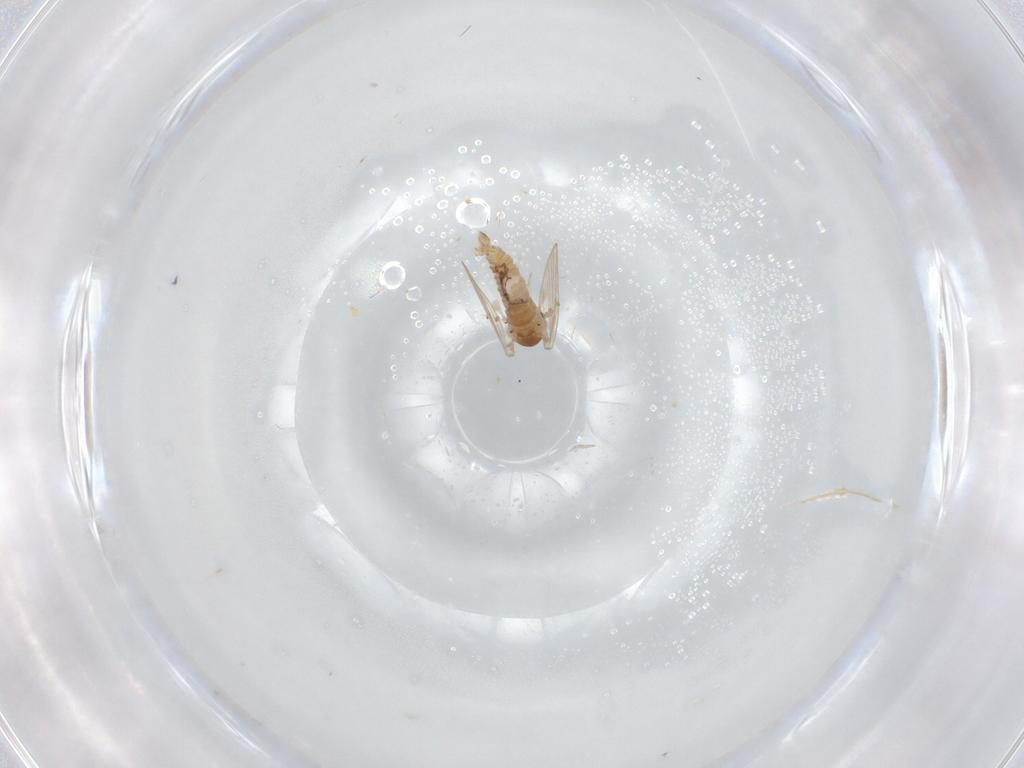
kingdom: Animalia
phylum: Arthropoda
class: Insecta
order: Diptera
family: Psychodidae
